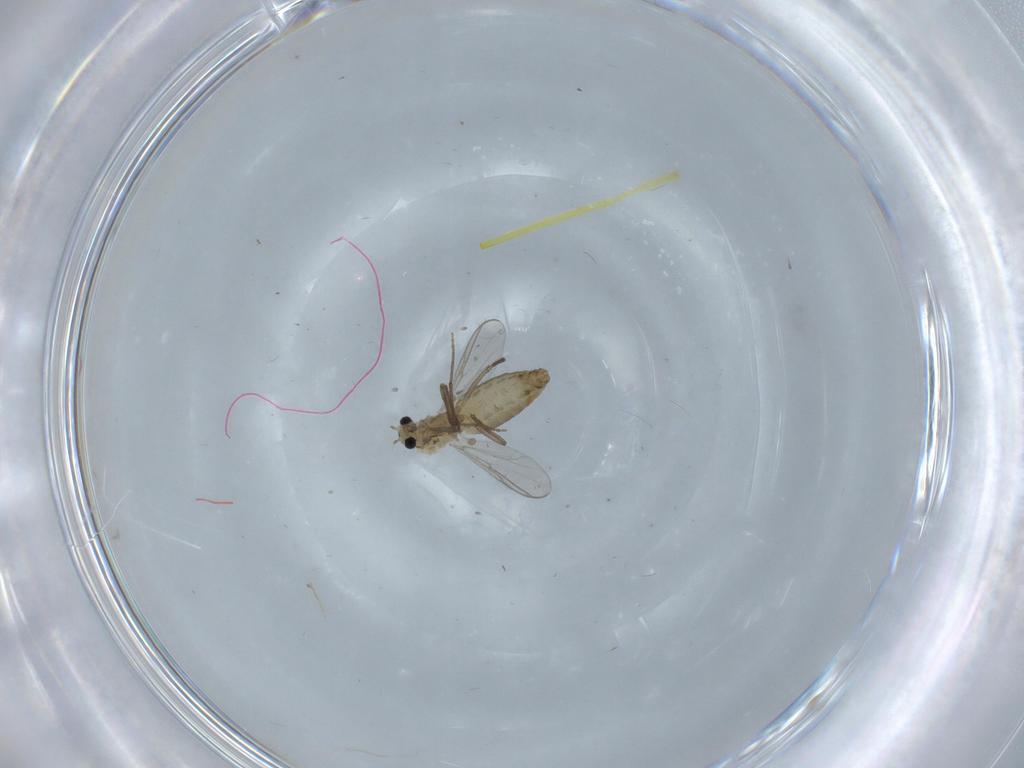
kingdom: Animalia
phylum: Arthropoda
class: Insecta
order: Diptera
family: Chironomidae
